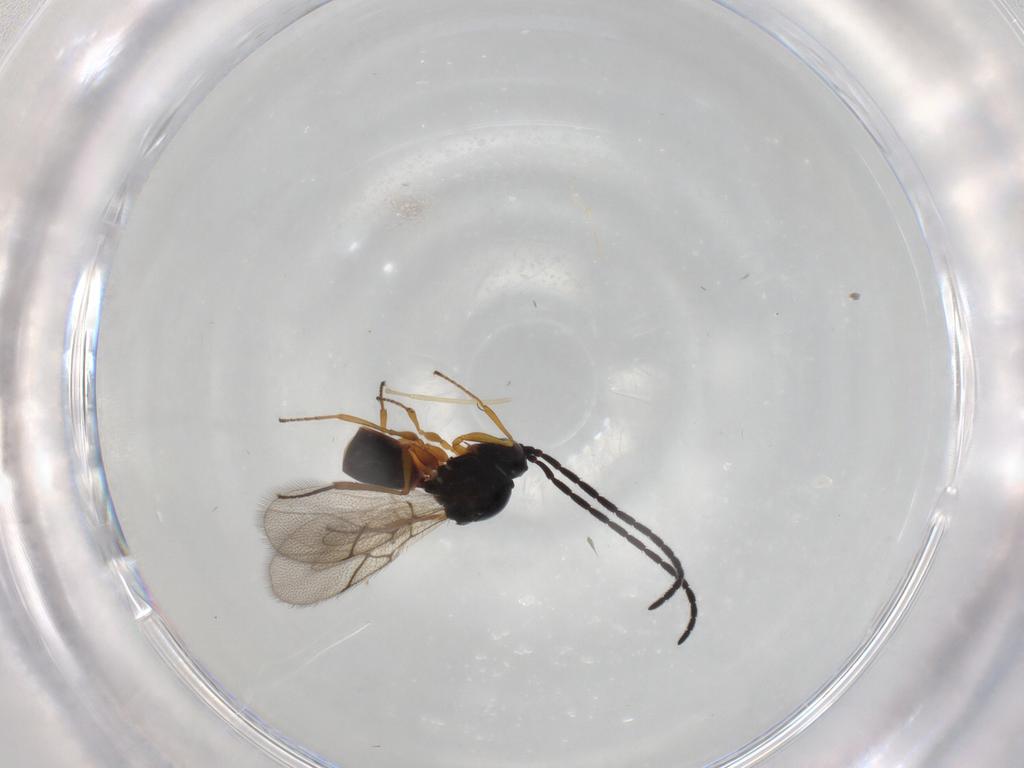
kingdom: Animalia
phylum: Arthropoda
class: Insecta
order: Hymenoptera
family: Figitidae
